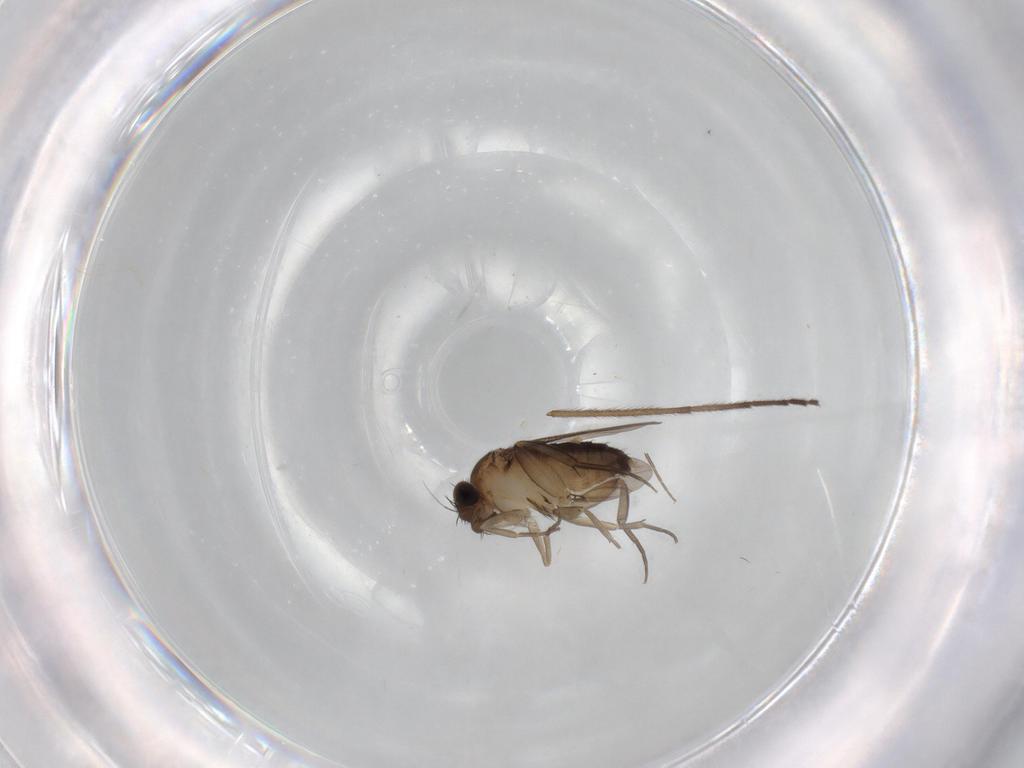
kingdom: Animalia
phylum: Arthropoda
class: Insecta
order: Diptera
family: Phoridae
